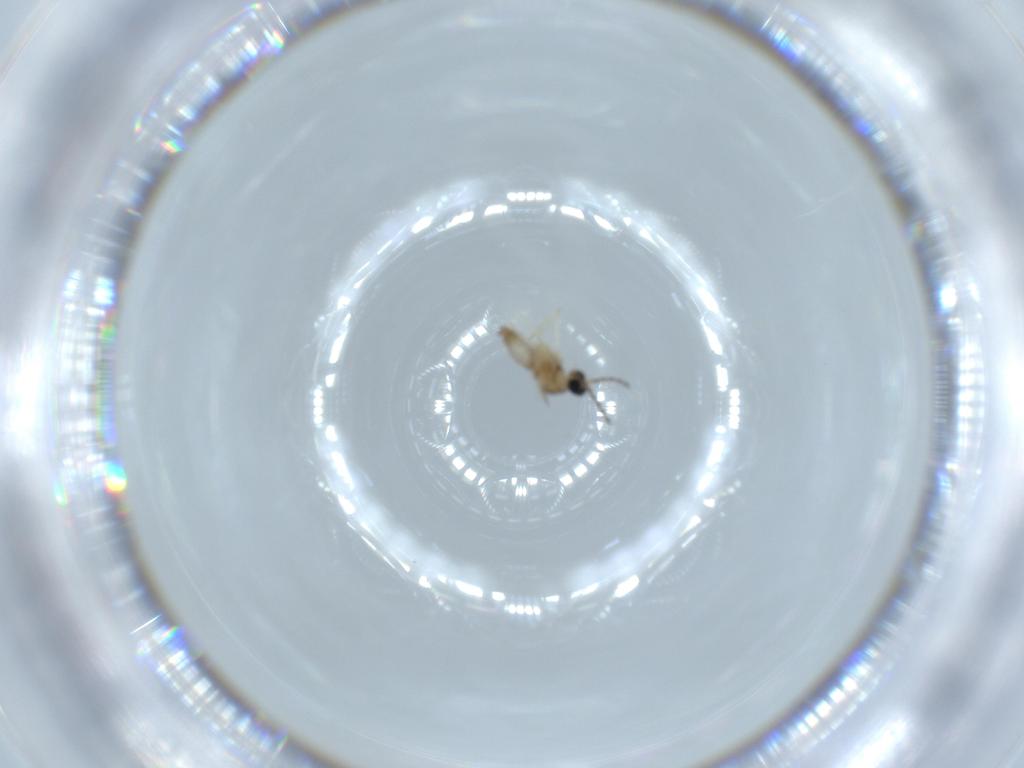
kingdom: Animalia
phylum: Arthropoda
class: Insecta
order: Diptera
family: Cecidomyiidae
